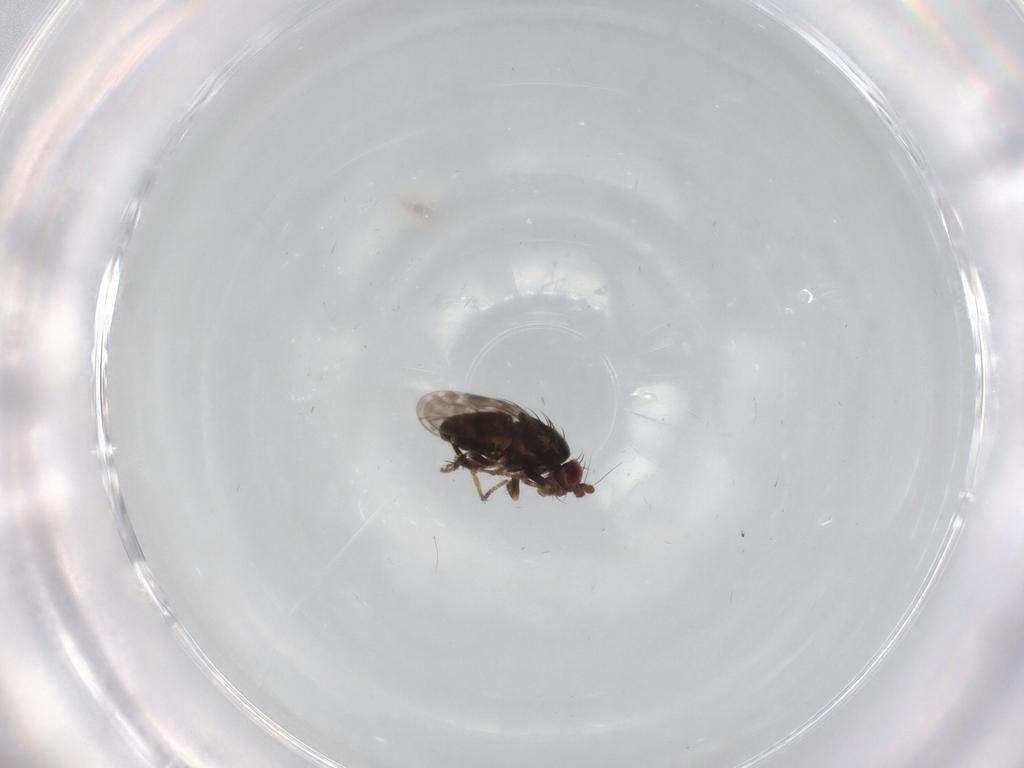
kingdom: Animalia
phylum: Arthropoda
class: Insecta
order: Diptera
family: Sphaeroceridae
